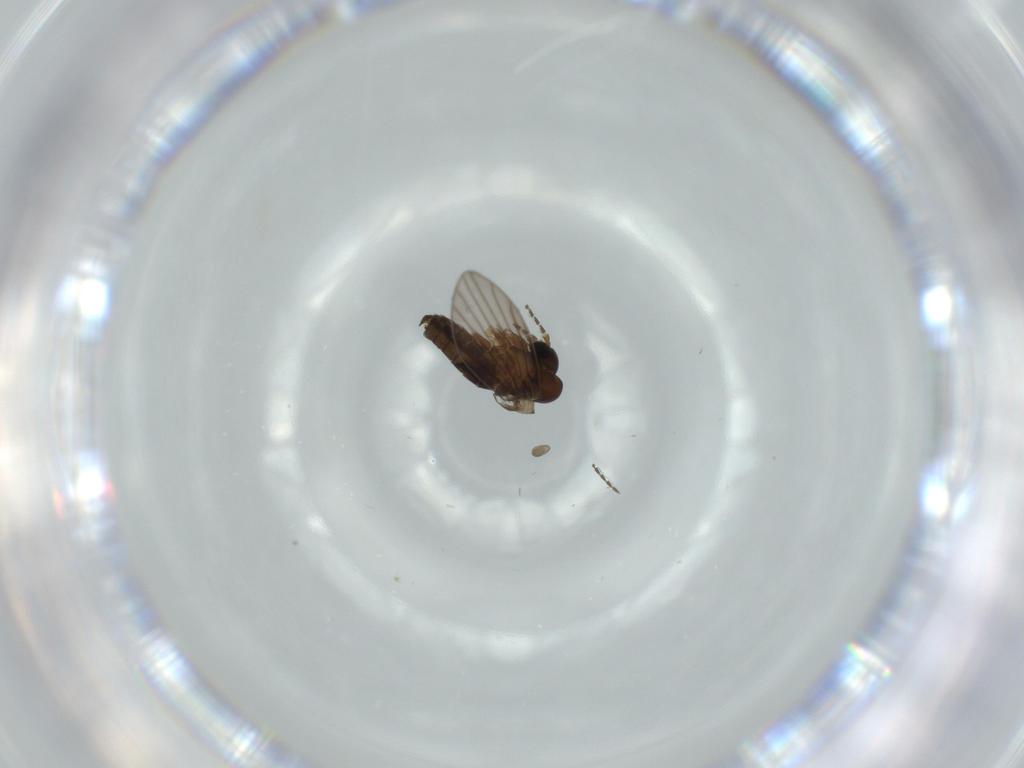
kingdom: Animalia
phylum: Arthropoda
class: Insecta
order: Diptera
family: Psychodidae
